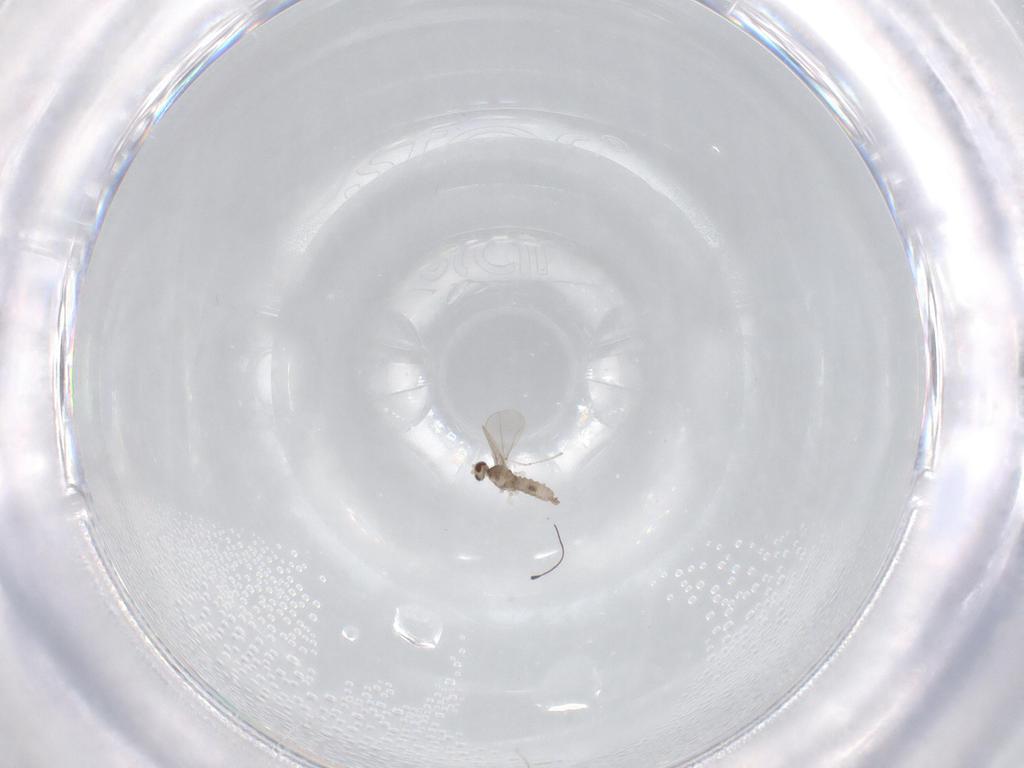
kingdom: Animalia
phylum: Arthropoda
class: Insecta
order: Diptera
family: Cecidomyiidae
